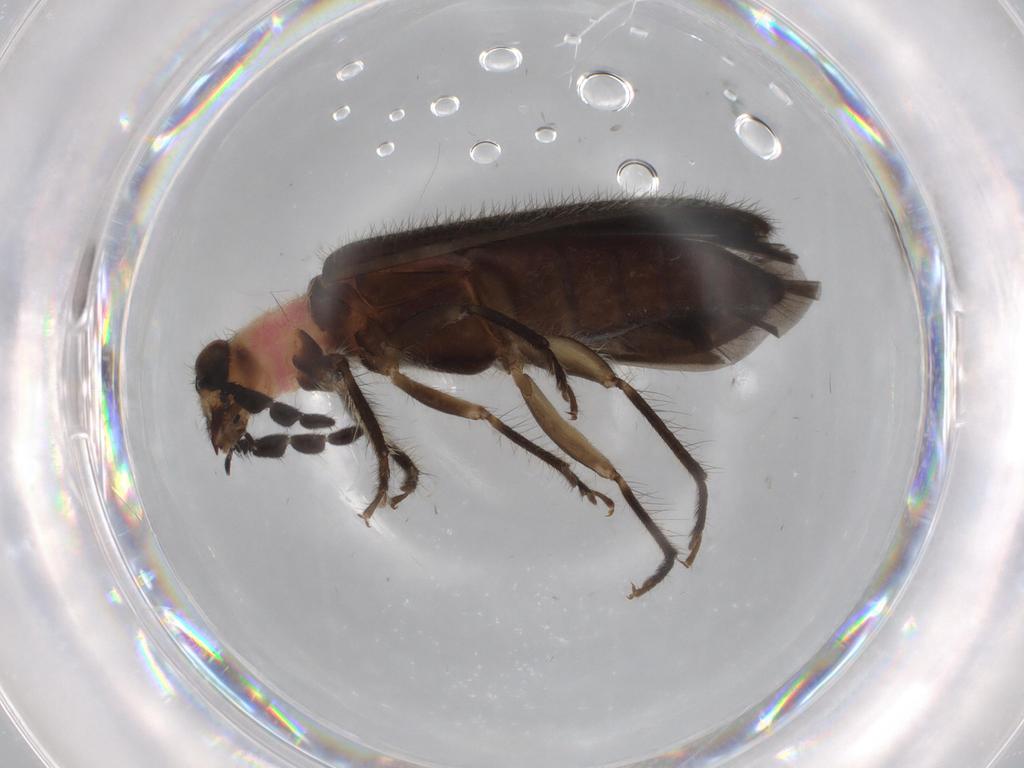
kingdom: Animalia
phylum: Arthropoda
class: Insecta
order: Coleoptera
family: Cleridae
